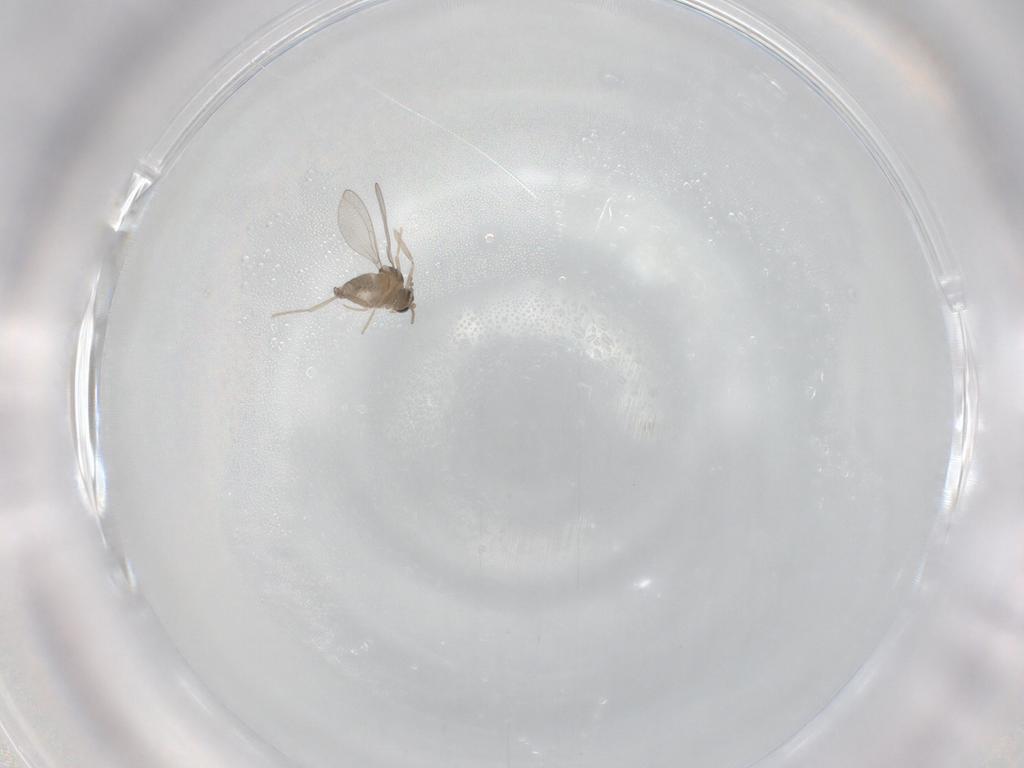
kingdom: Animalia
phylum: Arthropoda
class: Insecta
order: Diptera
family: Cecidomyiidae
